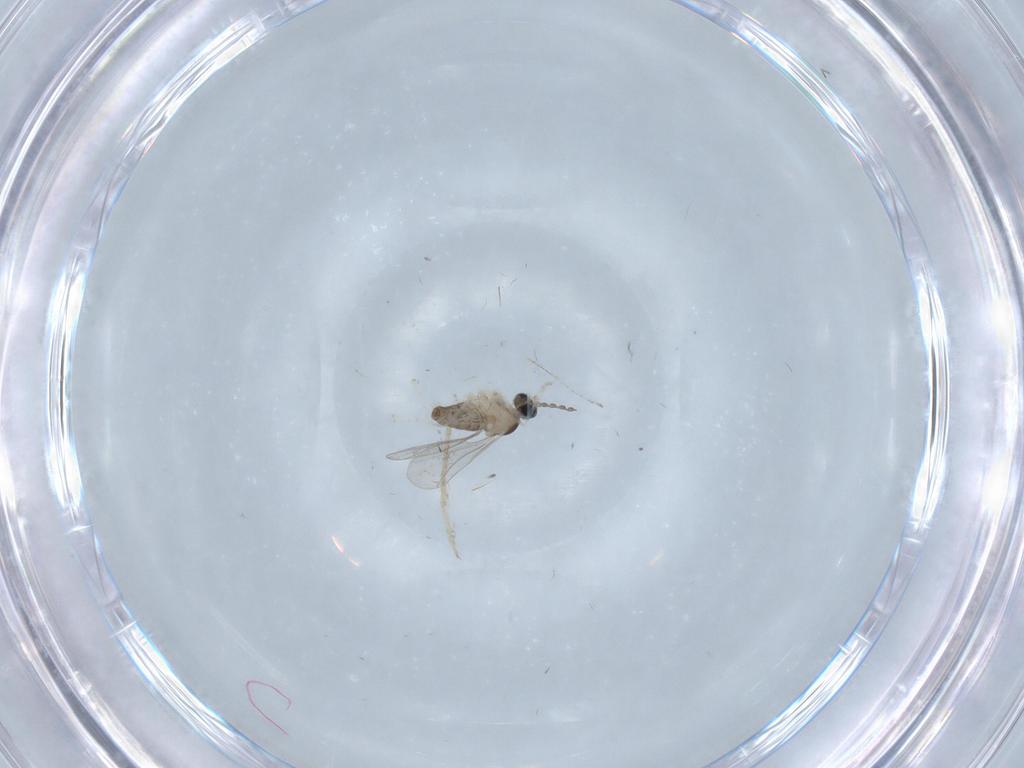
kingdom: Animalia
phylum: Arthropoda
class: Insecta
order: Diptera
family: Cecidomyiidae
